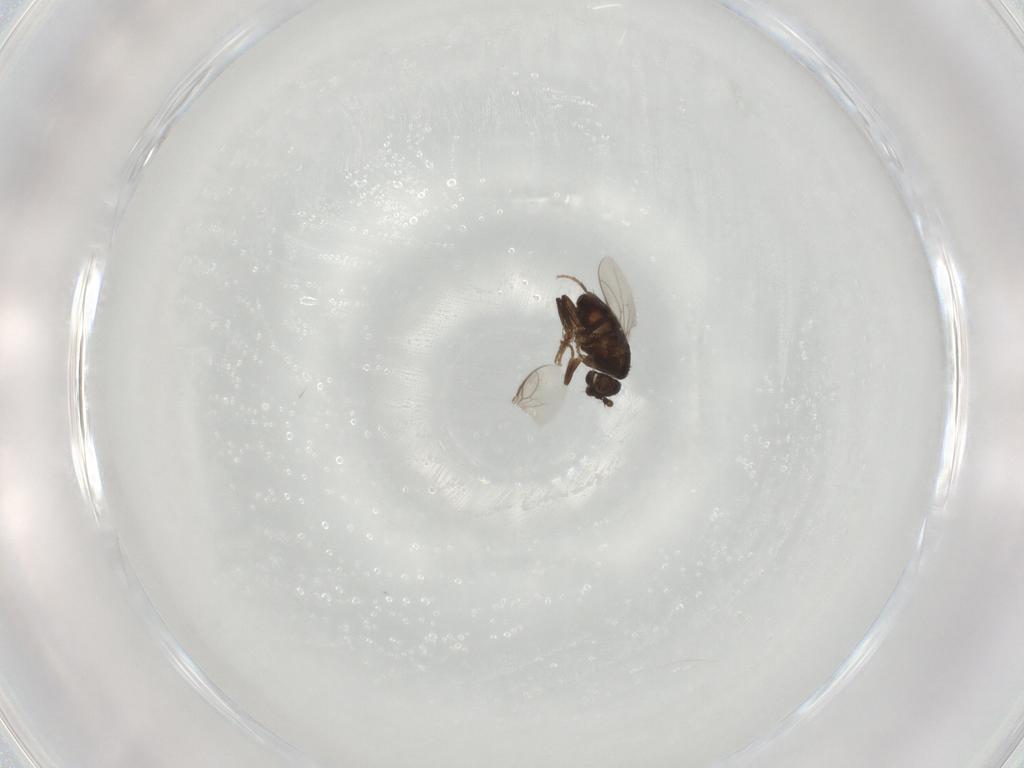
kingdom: Animalia
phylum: Arthropoda
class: Insecta
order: Diptera
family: Sphaeroceridae
